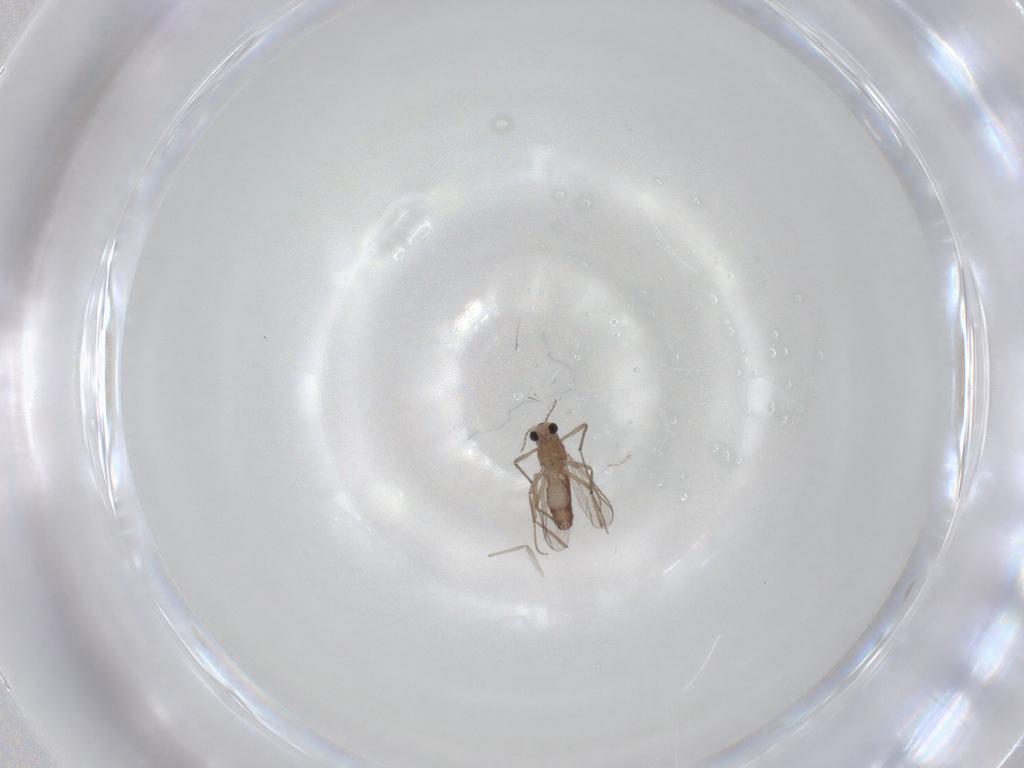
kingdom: Animalia
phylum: Arthropoda
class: Insecta
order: Diptera
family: Chironomidae
